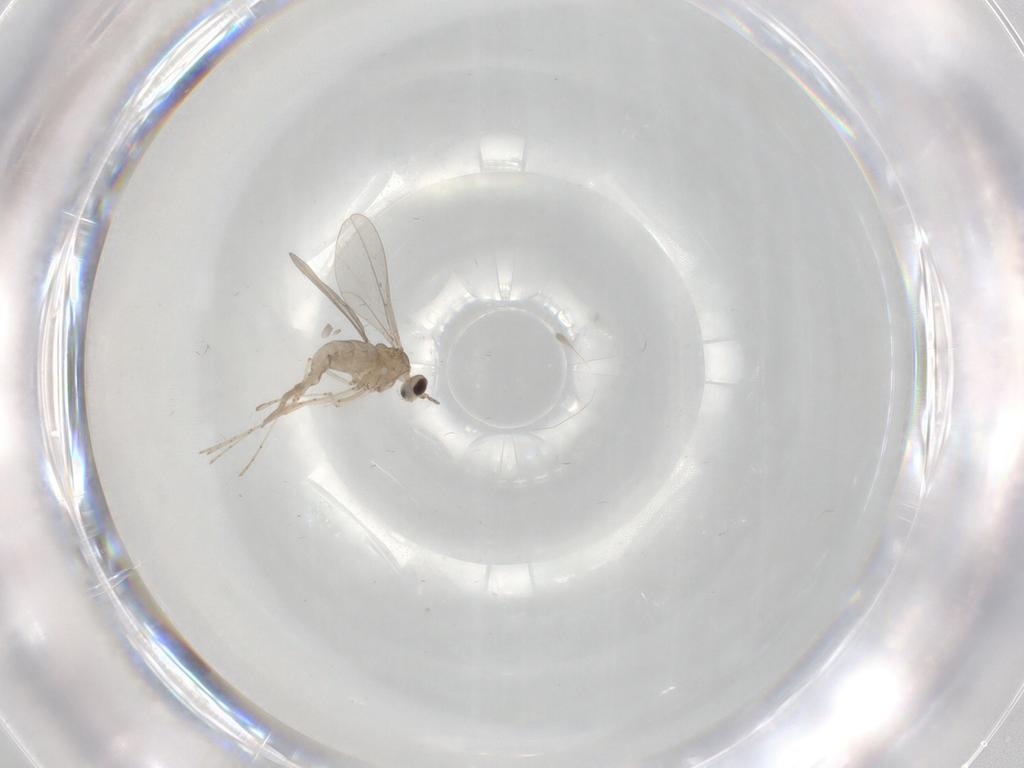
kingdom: Animalia
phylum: Arthropoda
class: Insecta
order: Diptera
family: Cecidomyiidae
